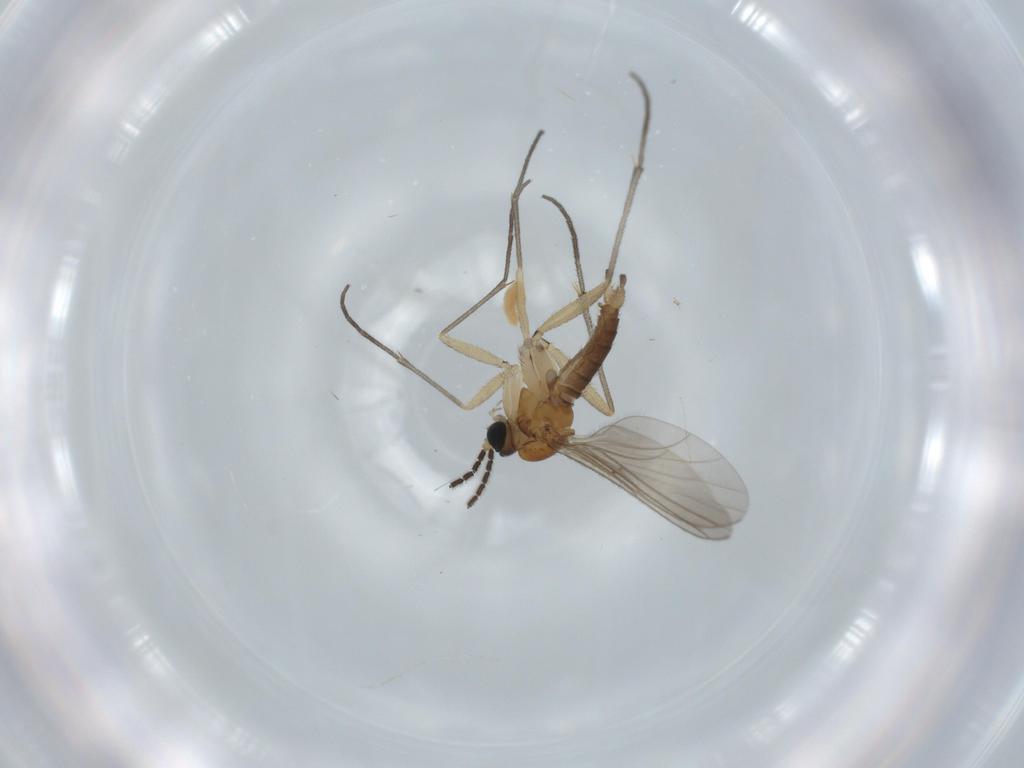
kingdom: Animalia
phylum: Arthropoda
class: Insecta
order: Diptera
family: Sciaridae
